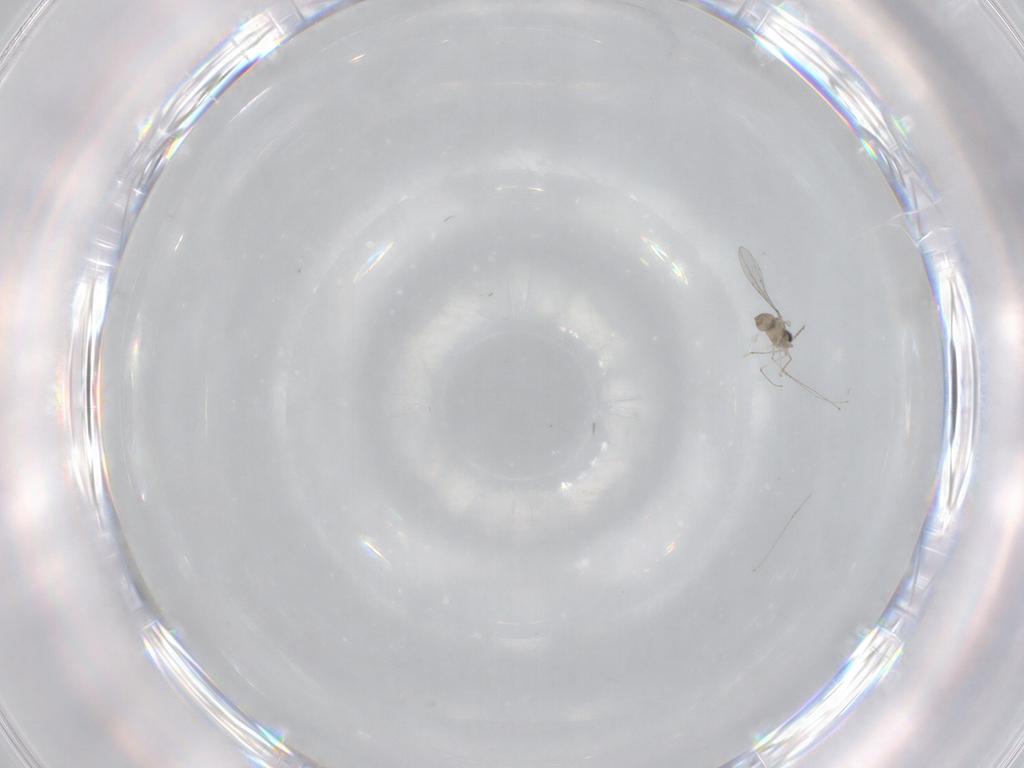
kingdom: Animalia
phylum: Arthropoda
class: Insecta
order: Diptera
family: Cecidomyiidae
